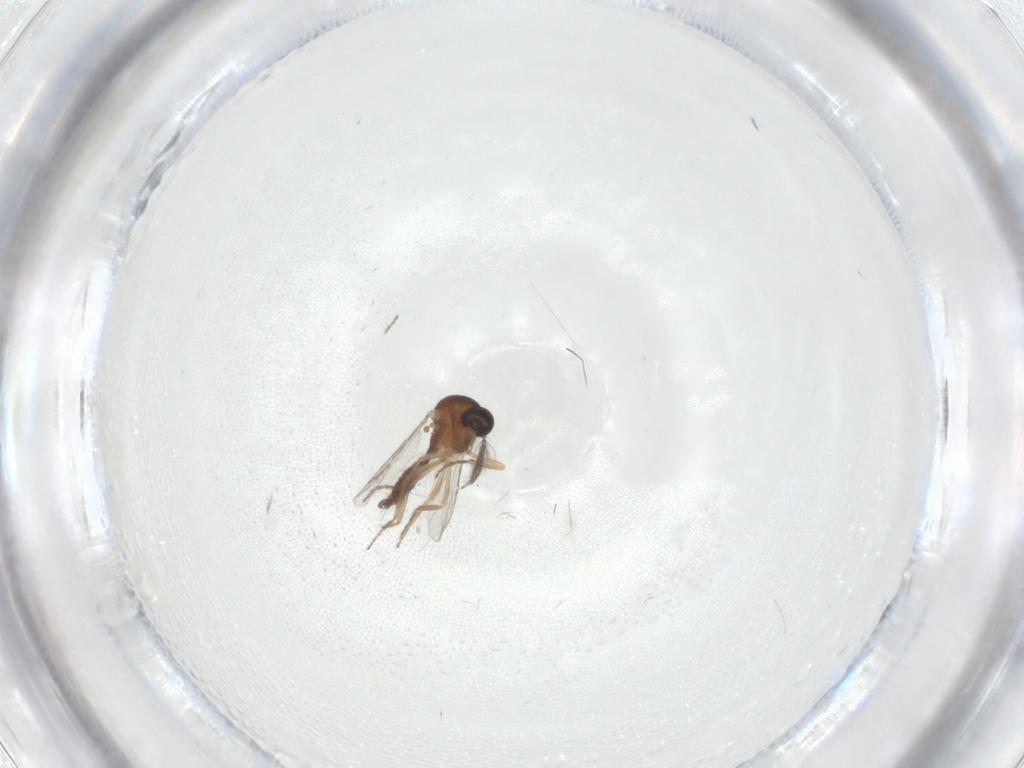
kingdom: Animalia
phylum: Arthropoda
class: Insecta
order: Diptera
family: Ceratopogonidae
